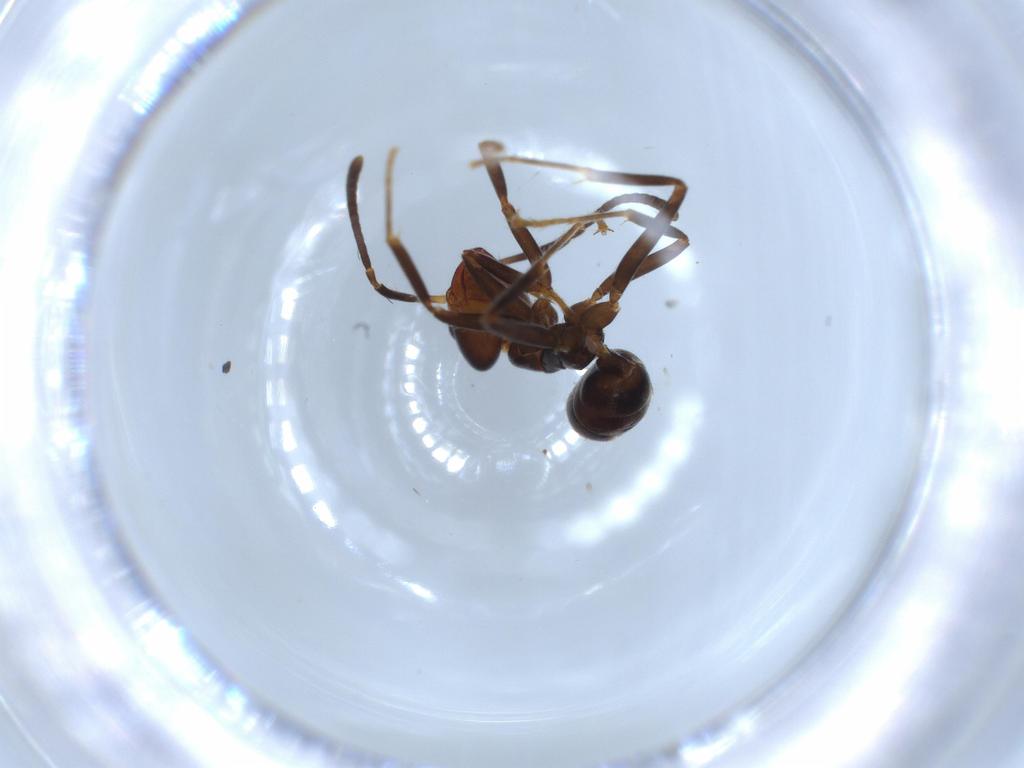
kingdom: Animalia
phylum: Arthropoda
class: Insecta
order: Hymenoptera
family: Formicidae
